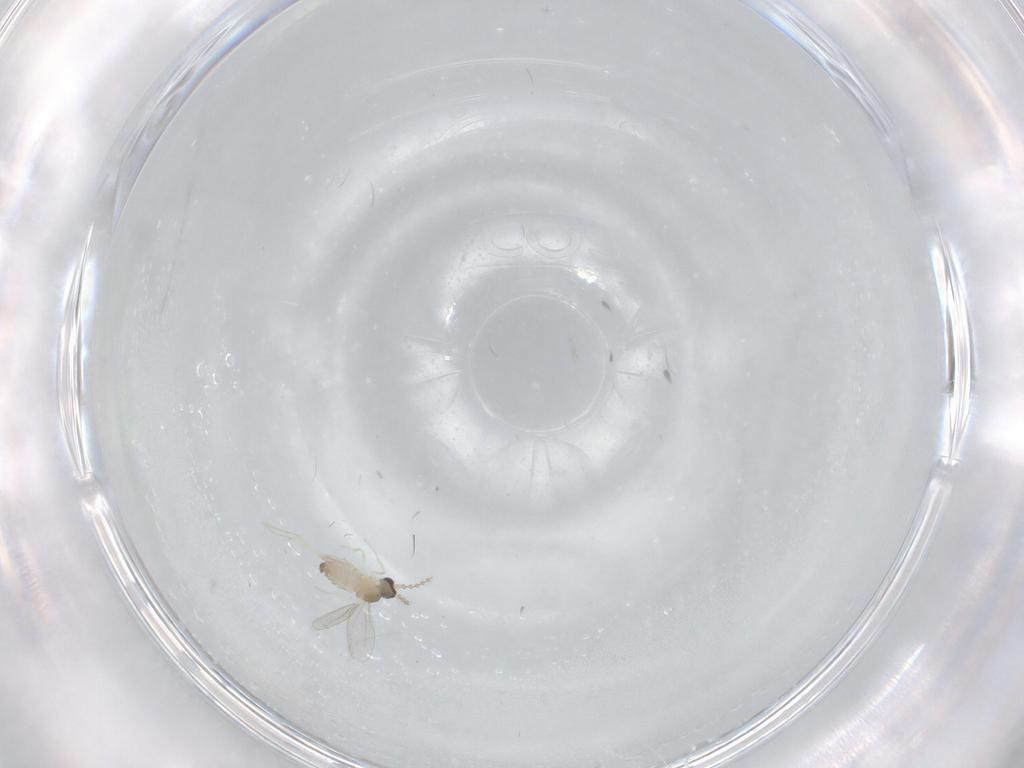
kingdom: Animalia
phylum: Arthropoda
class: Insecta
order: Diptera
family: Cecidomyiidae
